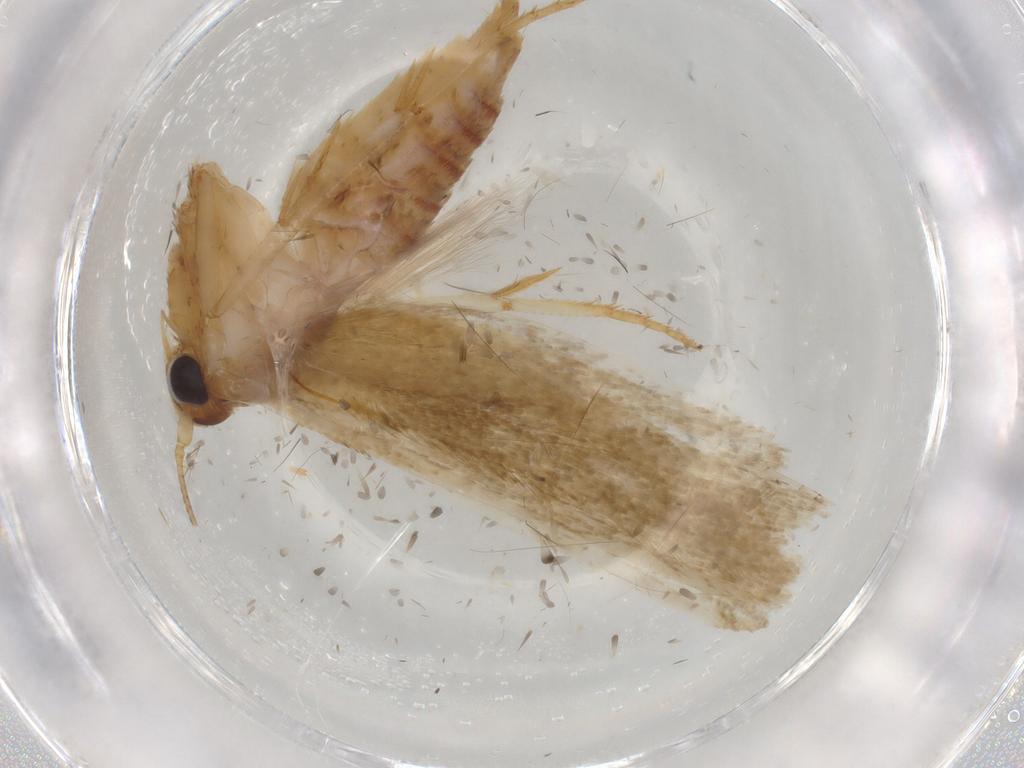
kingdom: Animalia
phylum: Arthropoda
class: Insecta
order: Lepidoptera
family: Blastobasidae
